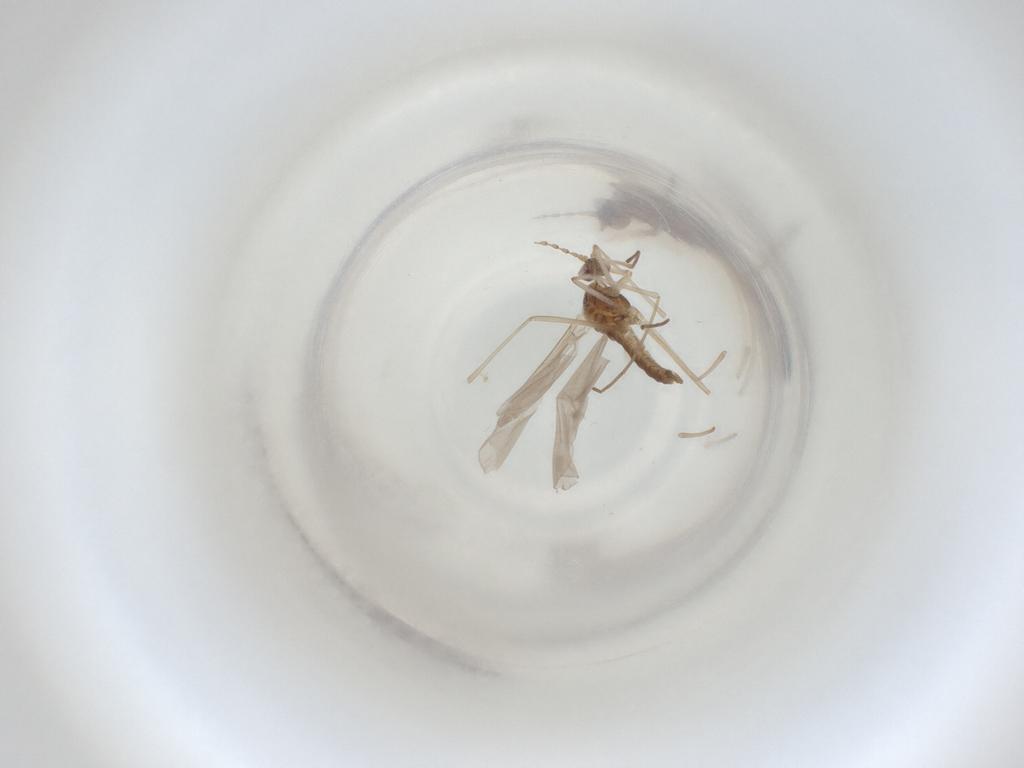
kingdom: Animalia
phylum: Arthropoda
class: Insecta
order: Diptera
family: Cecidomyiidae
